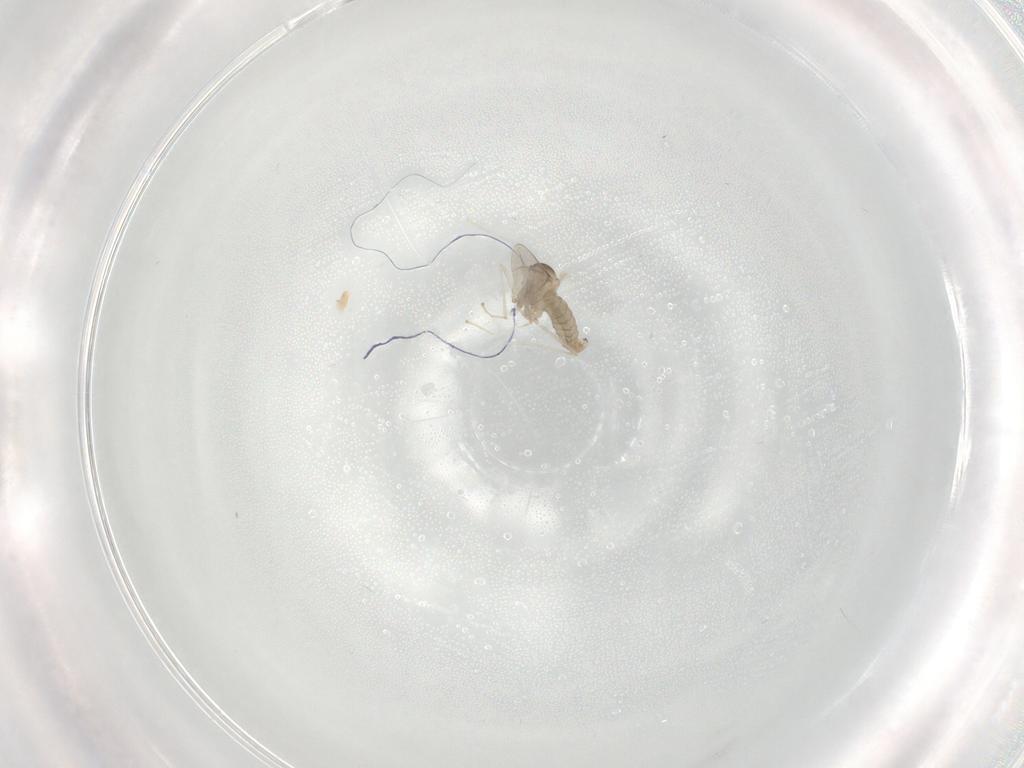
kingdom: Animalia
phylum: Arthropoda
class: Insecta
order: Diptera
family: Cecidomyiidae
